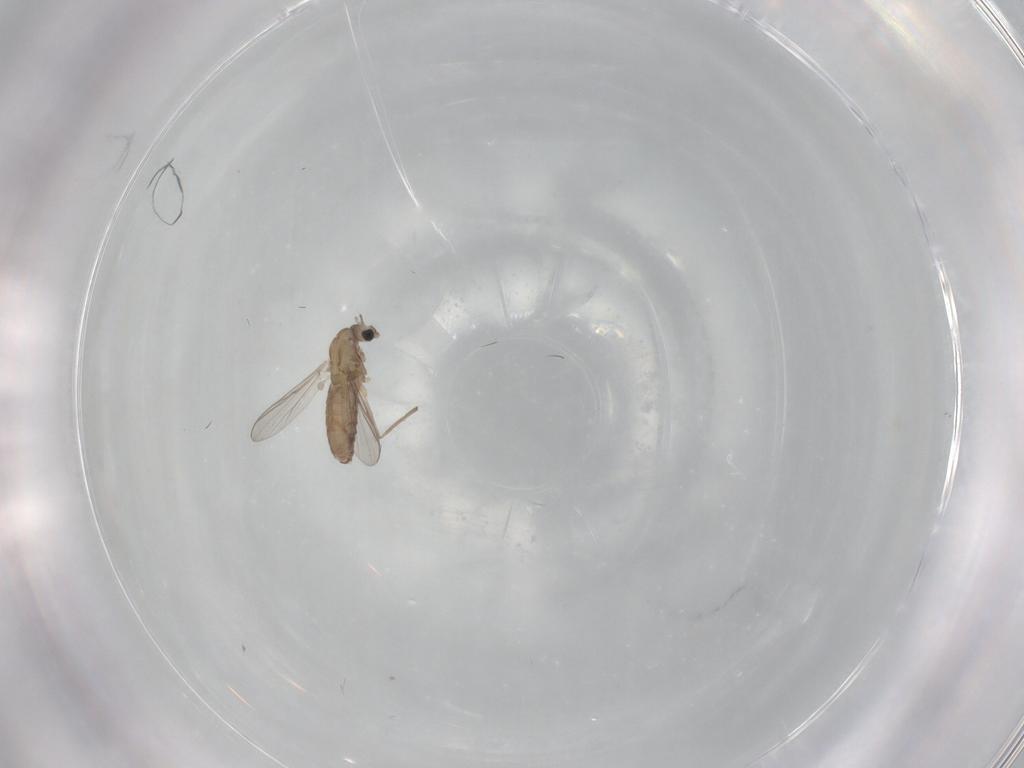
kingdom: Animalia
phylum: Arthropoda
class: Insecta
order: Diptera
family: Chironomidae
